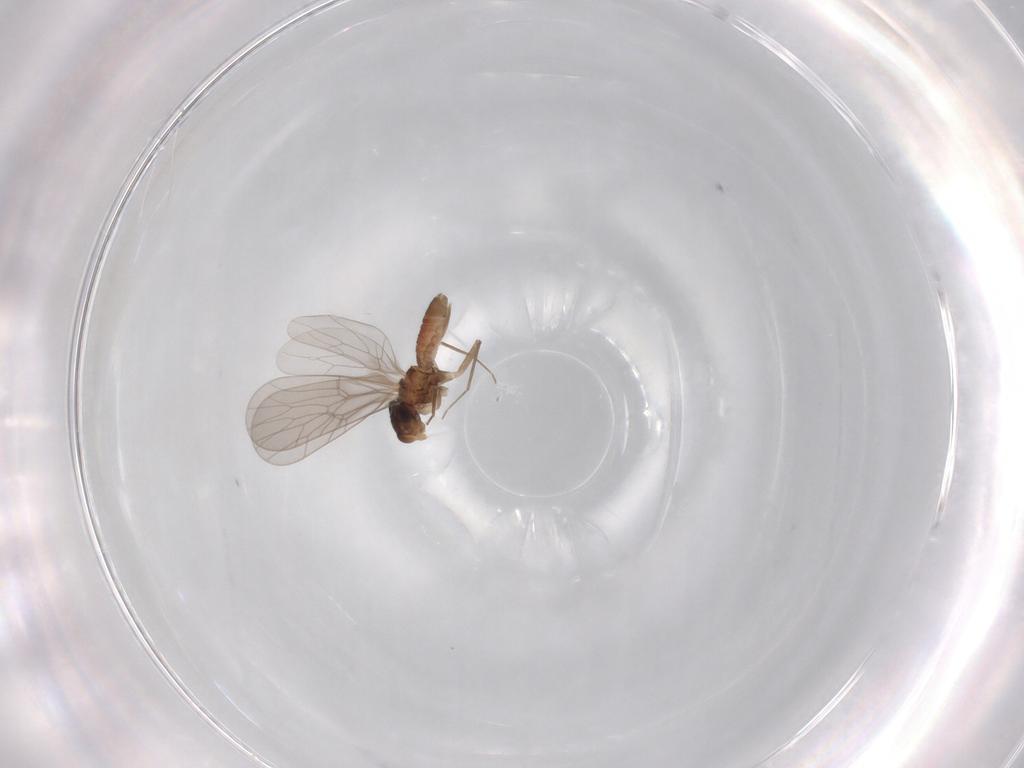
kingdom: Animalia
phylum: Arthropoda
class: Insecta
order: Psocodea
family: Lepidopsocidae
